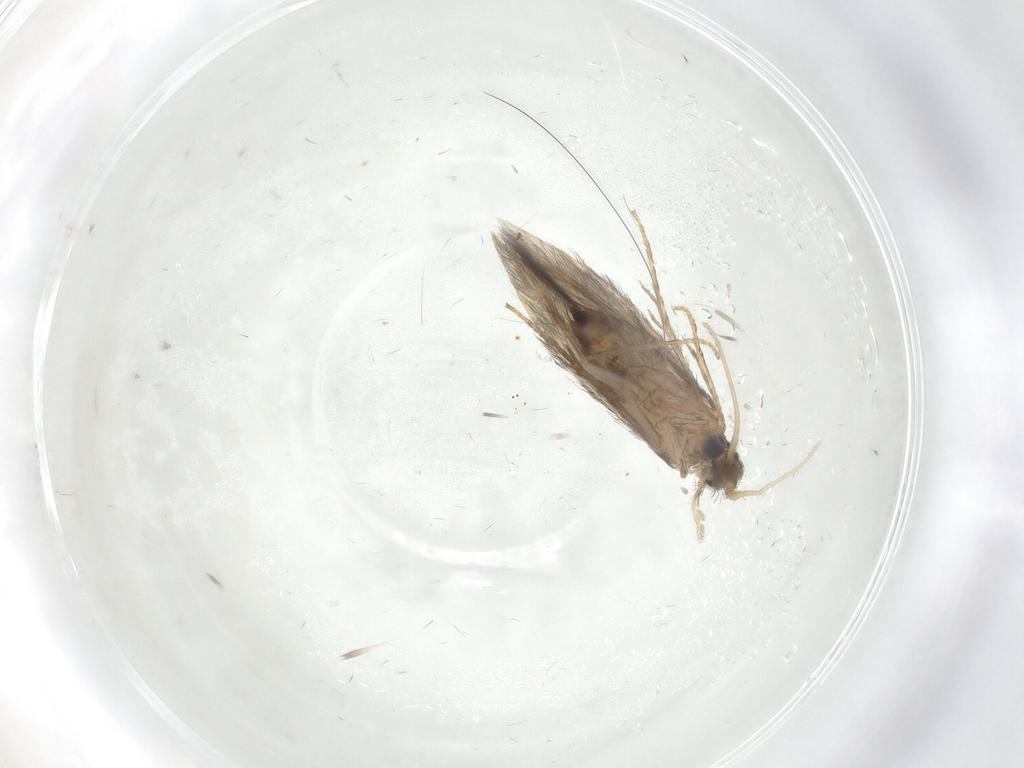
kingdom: Animalia
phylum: Arthropoda
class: Insecta
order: Trichoptera
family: Hydroptilidae
